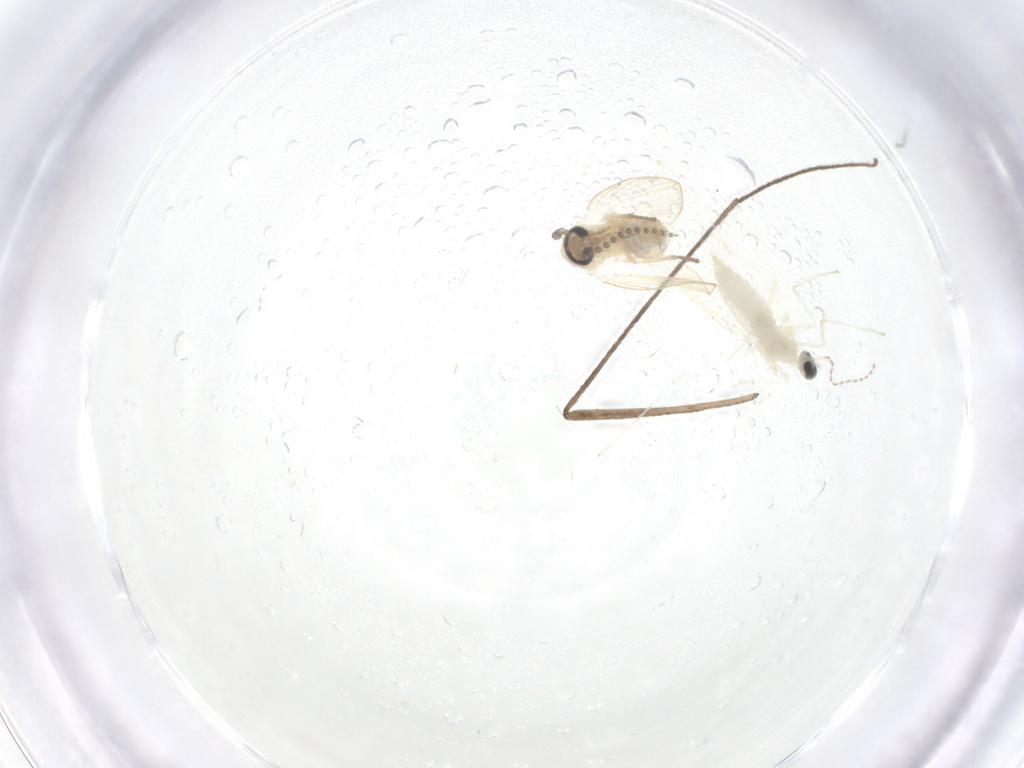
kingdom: Animalia
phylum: Arthropoda
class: Insecta
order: Diptera
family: Psychodidae
